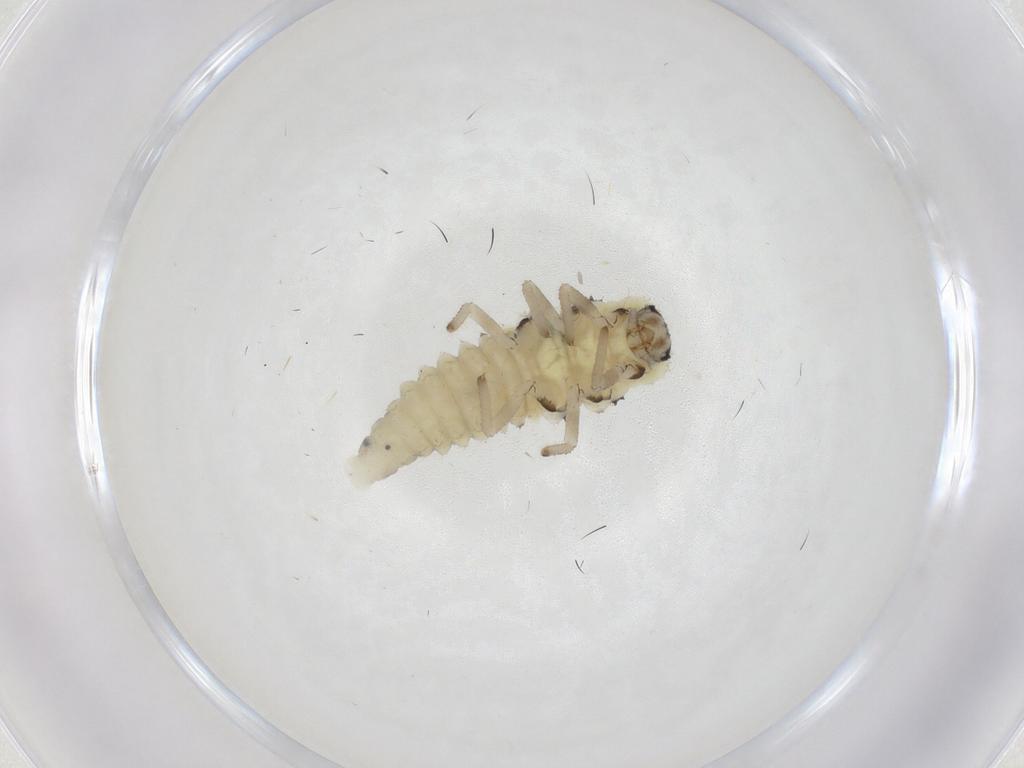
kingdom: Animalia
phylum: Arthropoda
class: Insecta
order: Coleoptera
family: Coccinellidae
